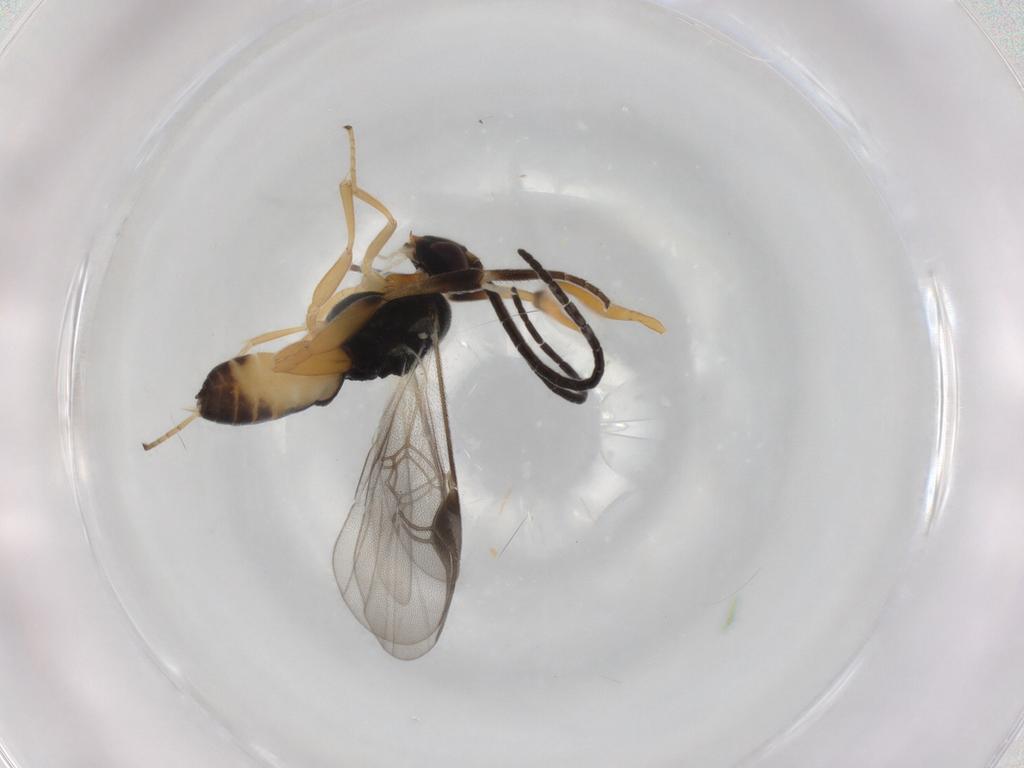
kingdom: Animalia
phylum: Arthropoda
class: Insecta
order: Hymenoptera
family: Braconidae
